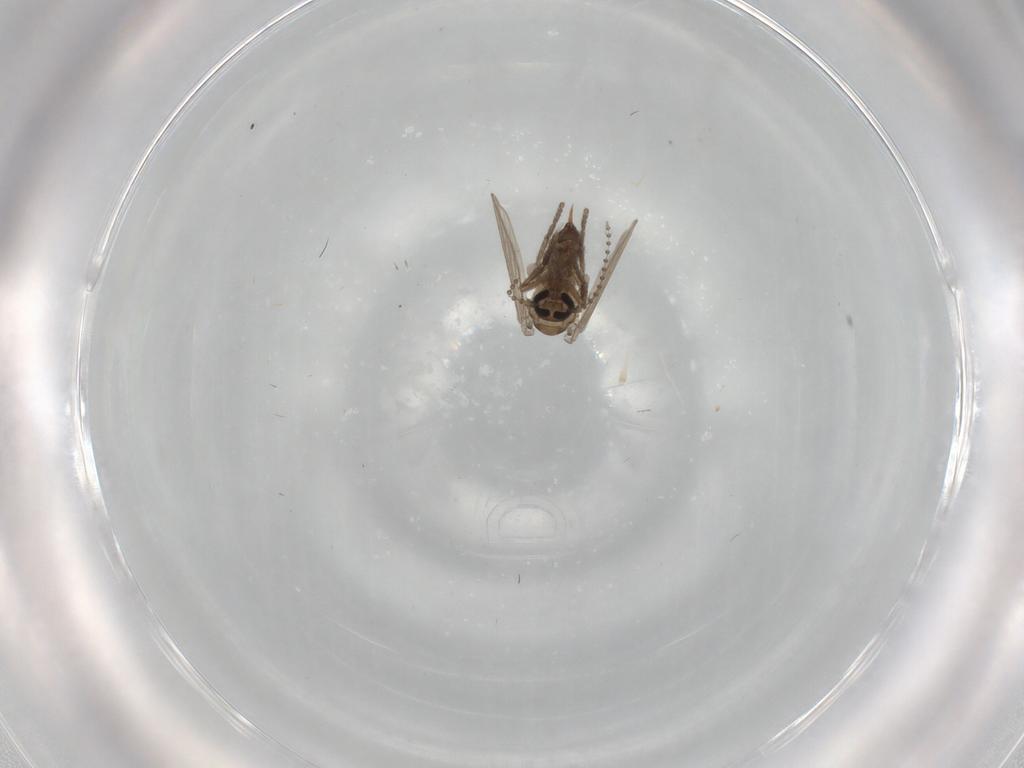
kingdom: Animalia
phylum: Arthropoda
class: Insecta
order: Diptera
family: Psychodidae
